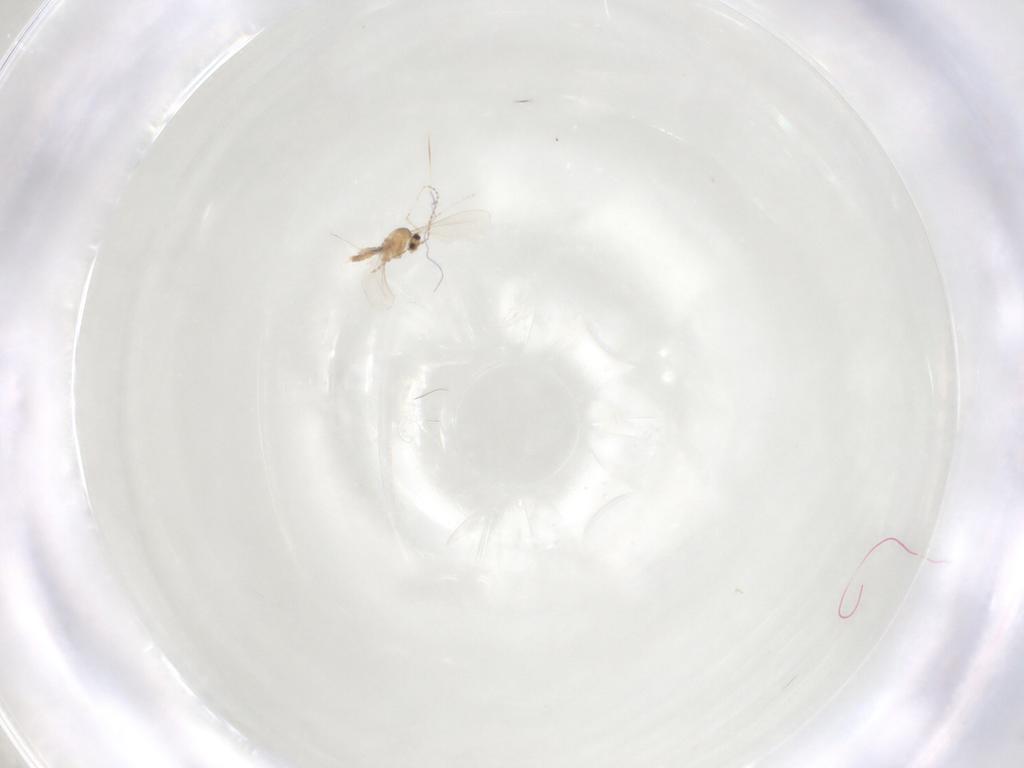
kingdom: Animalia
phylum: Arthropoda
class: Insecta
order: Diptera
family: Cecidomyiidae
